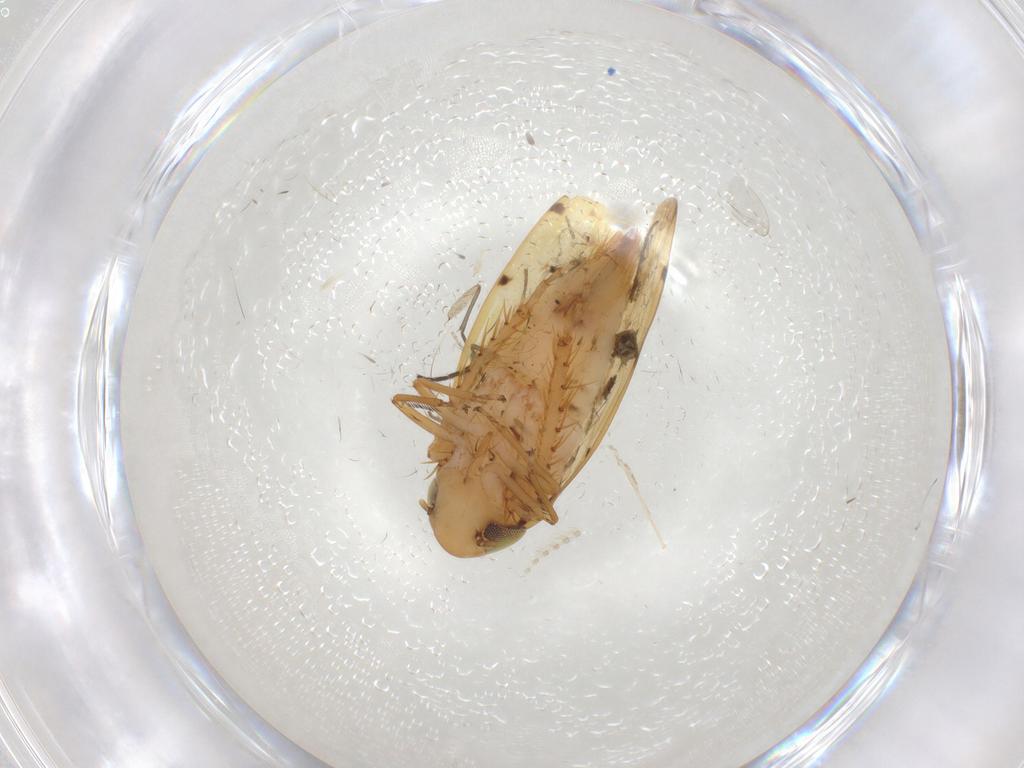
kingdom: Animalia
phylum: Arthropoda
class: Insecta
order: Hemiptera
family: Cicadellidae
